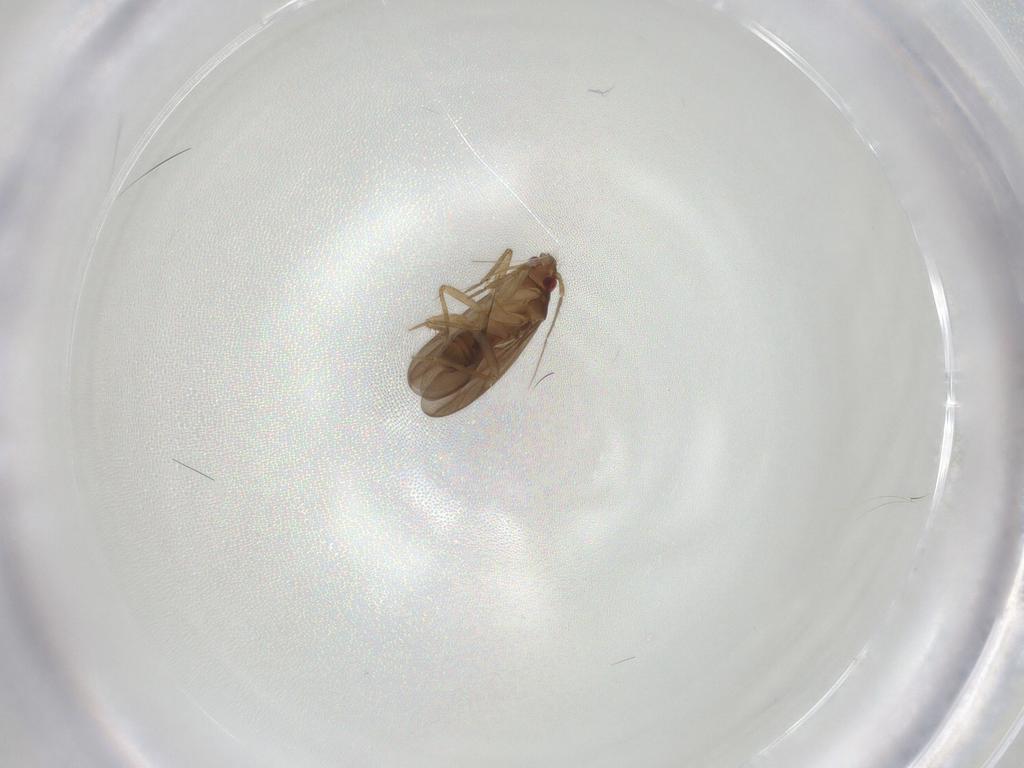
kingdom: Animalia
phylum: Arthropoda
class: Insecta
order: Hemiptera
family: Ceratocombidae
